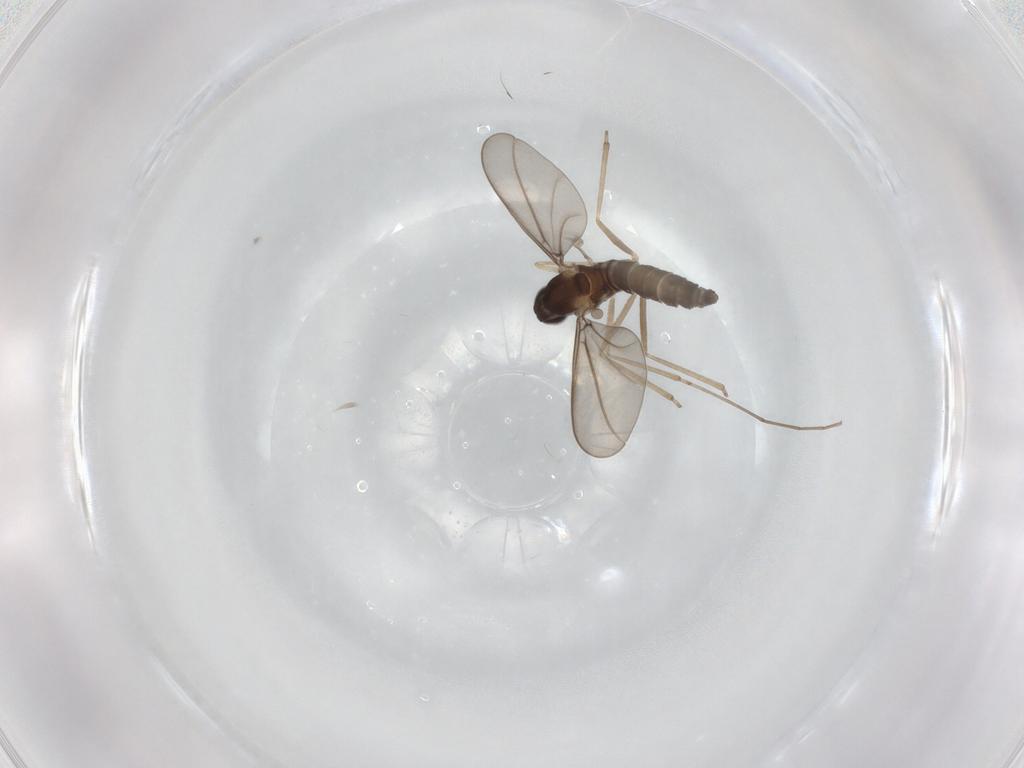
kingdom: Animalia
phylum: Arthropoda
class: Insecta
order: Diptera
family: Cecidomyiidae
